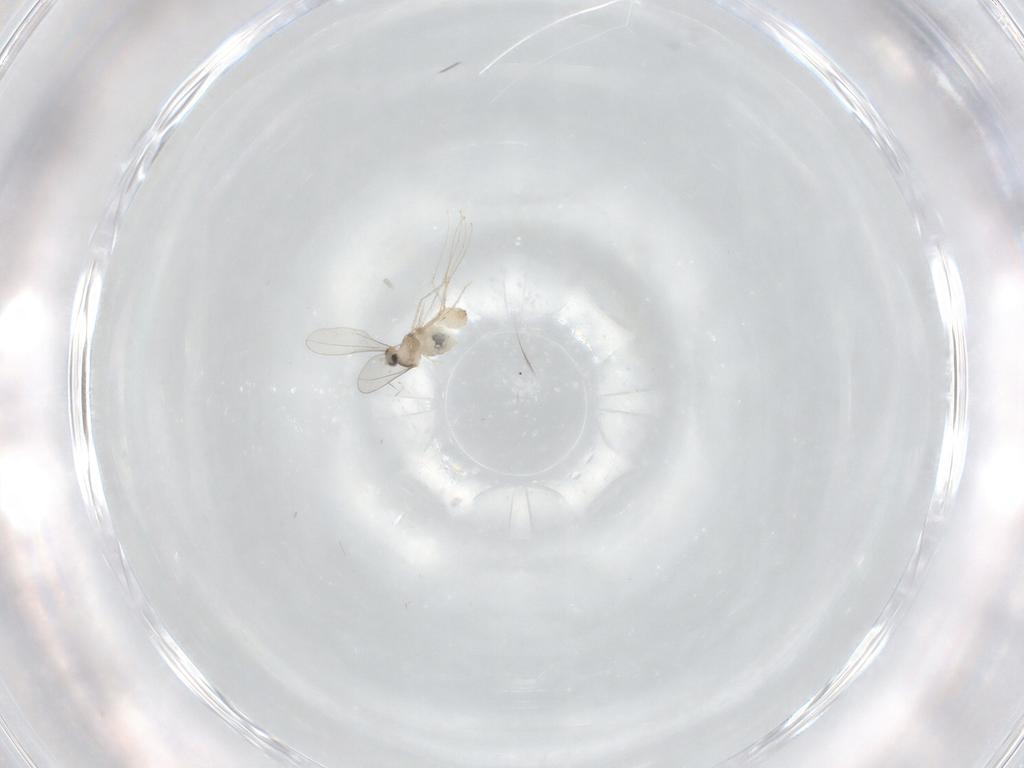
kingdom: Animalia
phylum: Arthropoda
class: Insecta
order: Diptera
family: Cecidomyiidae
